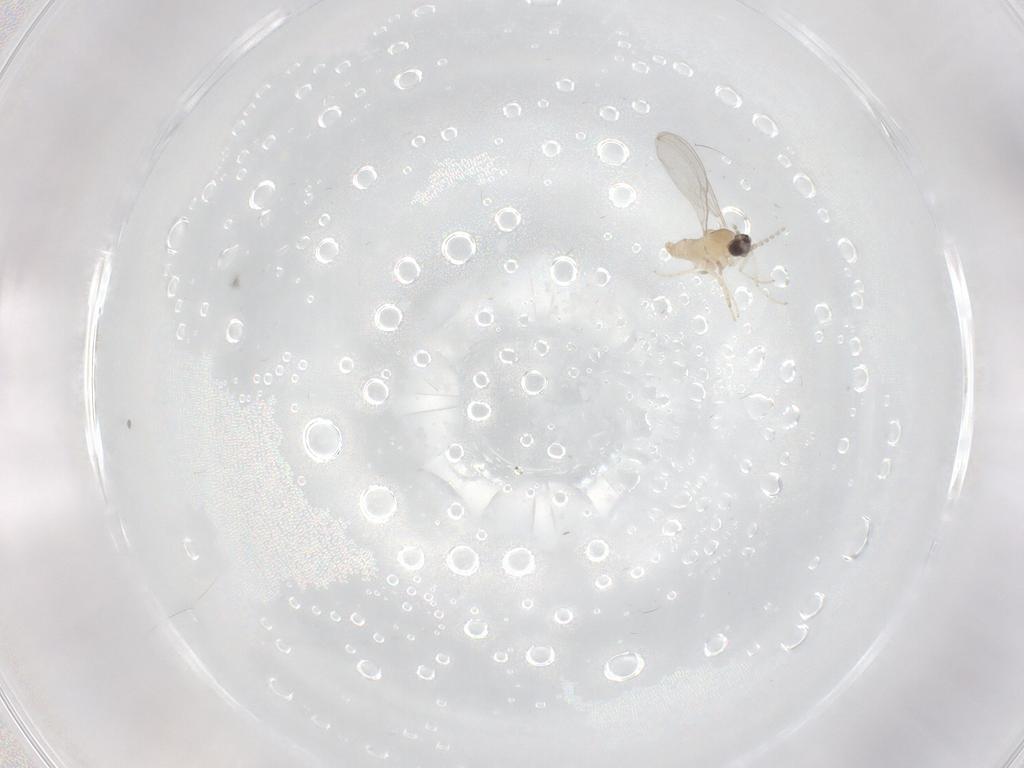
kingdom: Animalia
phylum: Arthropoda
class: Insecta
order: Diptera
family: Cecidomyiidae
